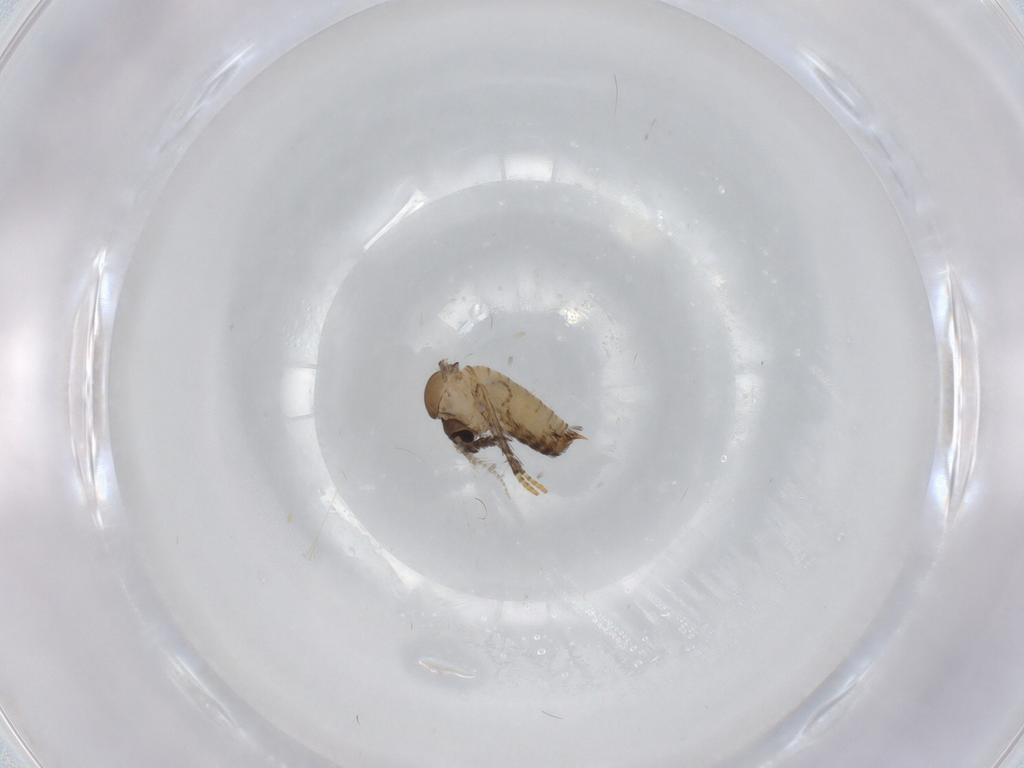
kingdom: Animalia
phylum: Arthropoda
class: Insecta
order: Diptera
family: Psychodidae
